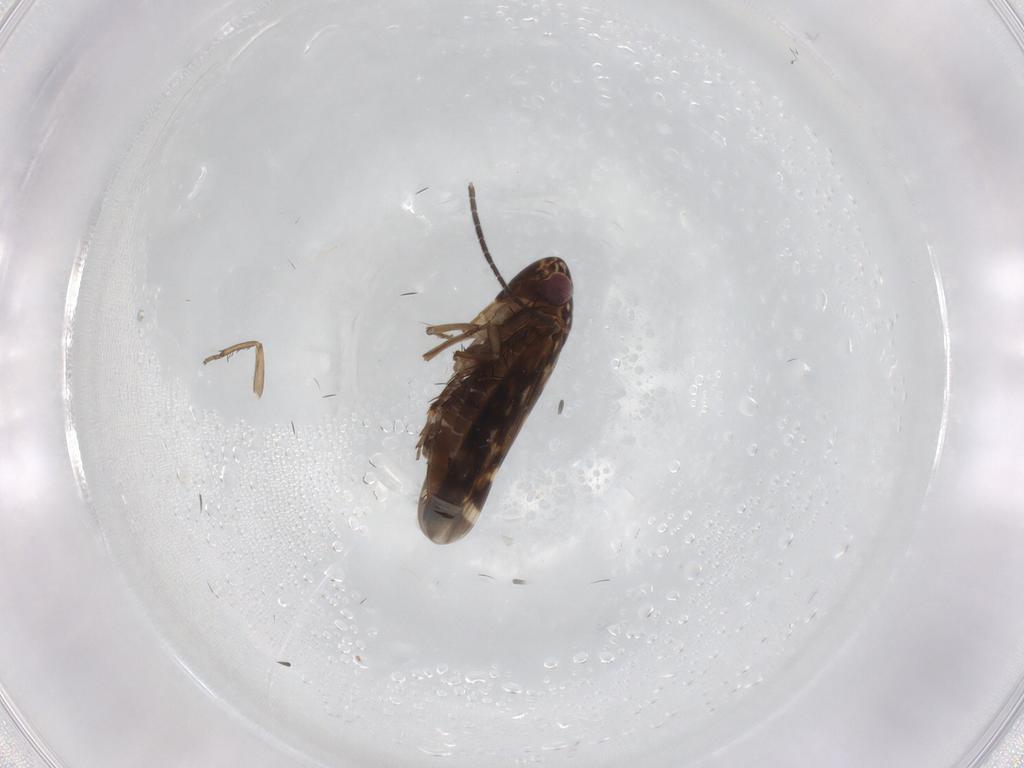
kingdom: Animalia
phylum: Arthropoda
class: Insecta
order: Hemiptera
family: Cicadellidae
